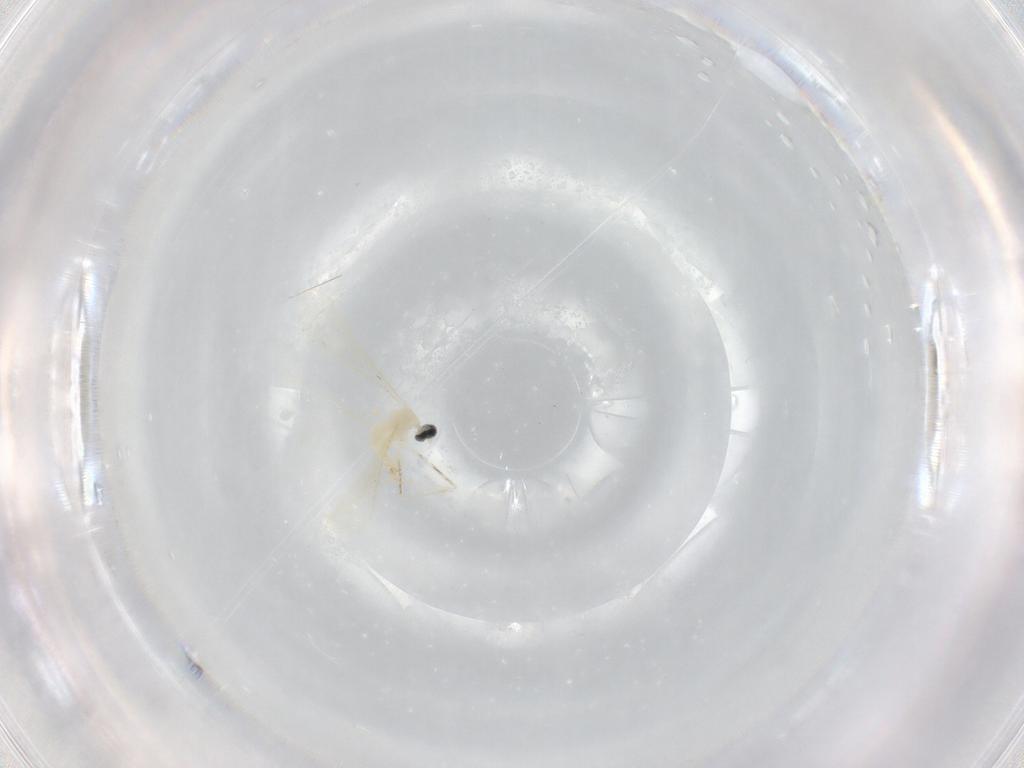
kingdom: Animalia
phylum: Arthropoda
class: Insecta
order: Diptera
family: Cecidomyiidae
